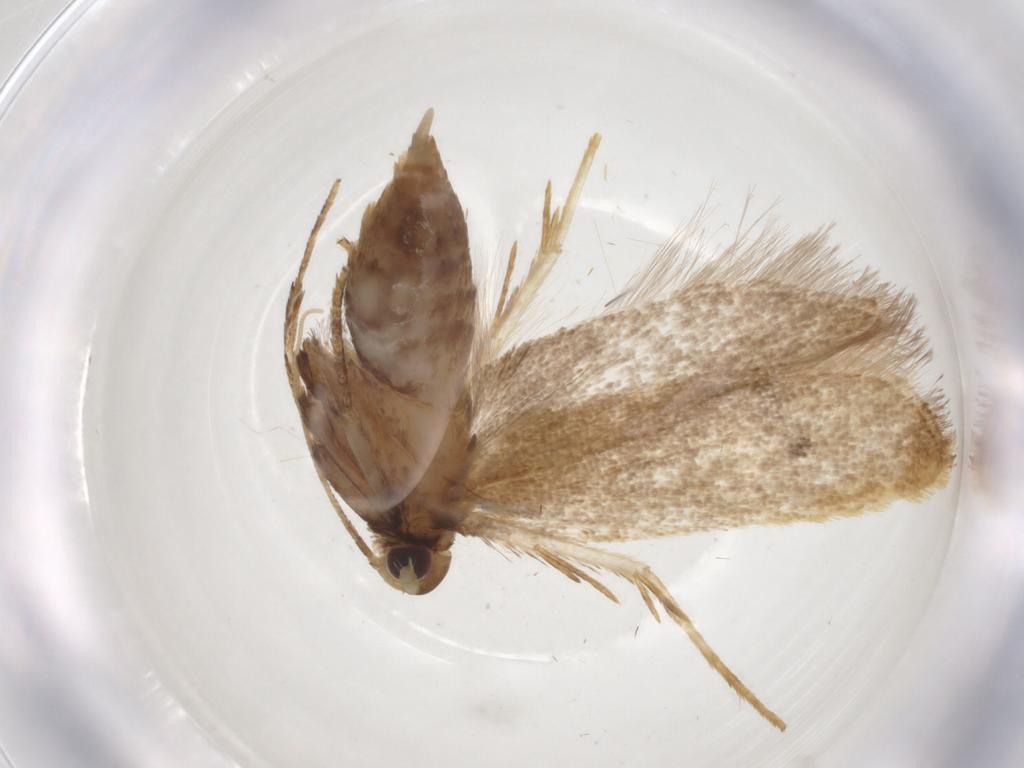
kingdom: Animalia
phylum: Arthropoda
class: Insecta
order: Lepidoptera
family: Lecithoceridae
